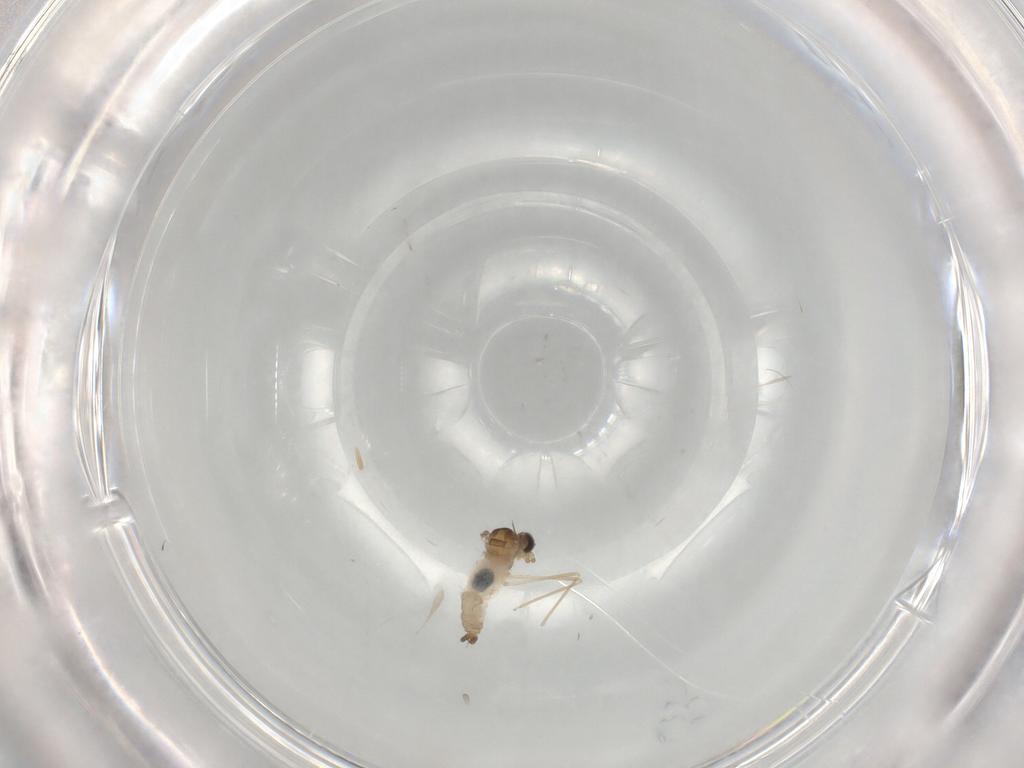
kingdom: Animalia
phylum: Arthropoda
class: Insecta
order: Diptera
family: Cecidomyiidae
